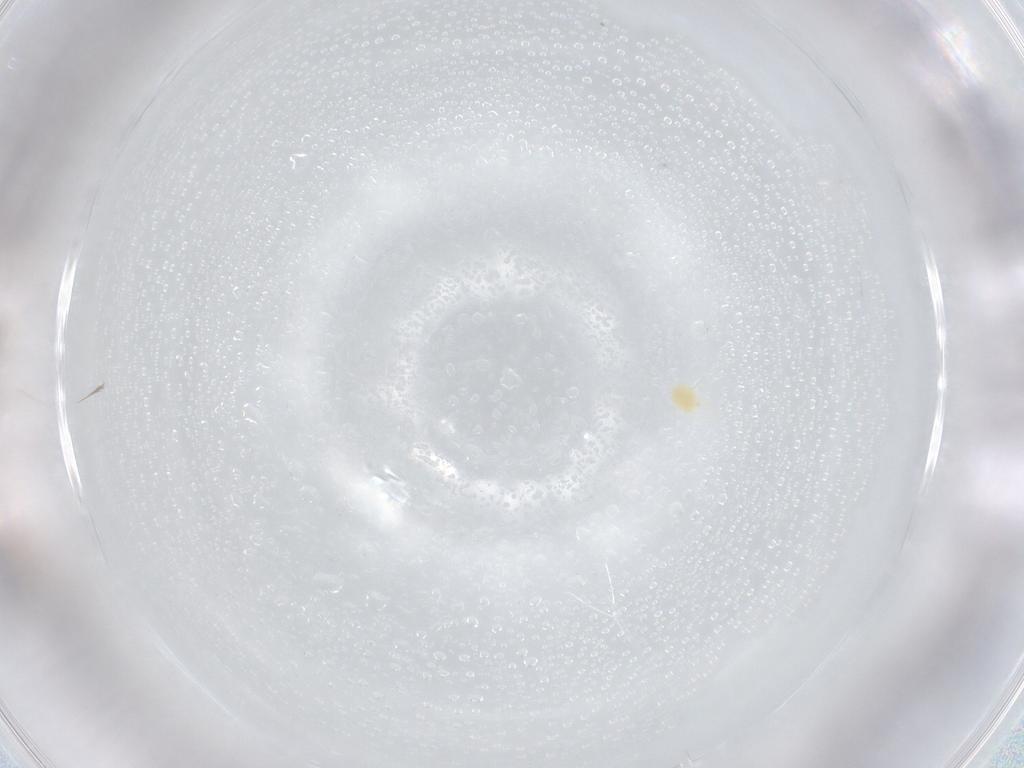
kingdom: Animalia
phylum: Arthropoda
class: Arachnida
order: Trombidiformes
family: Tetranychidae
